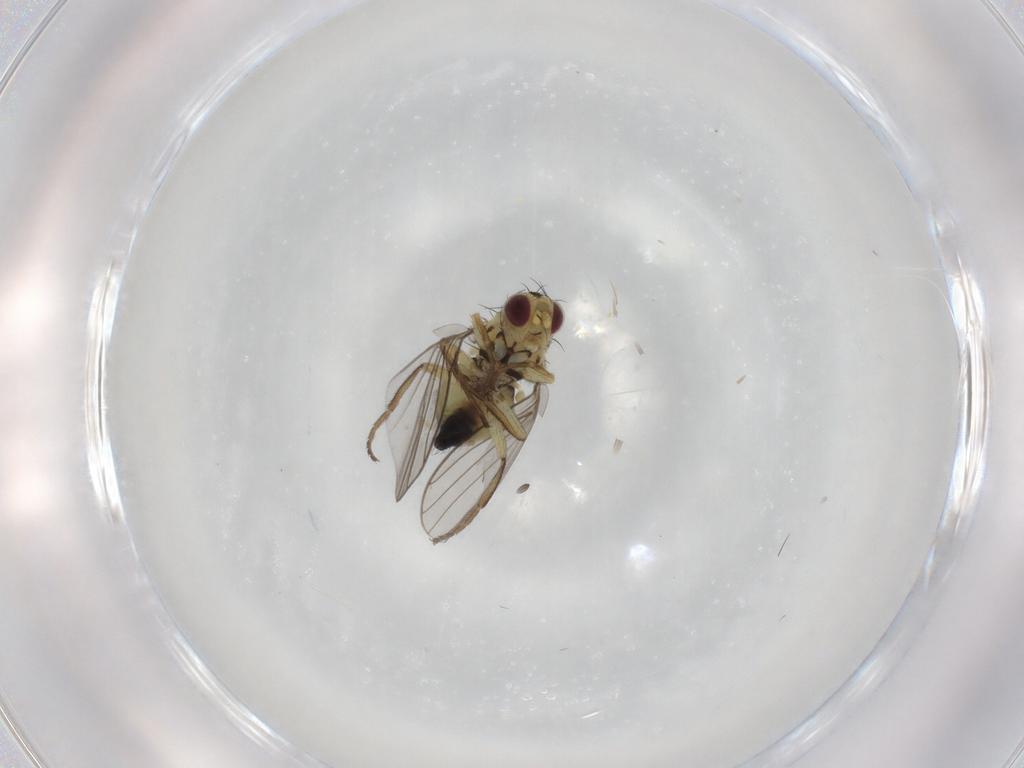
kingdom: Animalia
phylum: Arthropoda
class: Insecta
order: Diptera
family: Agromyzidae
